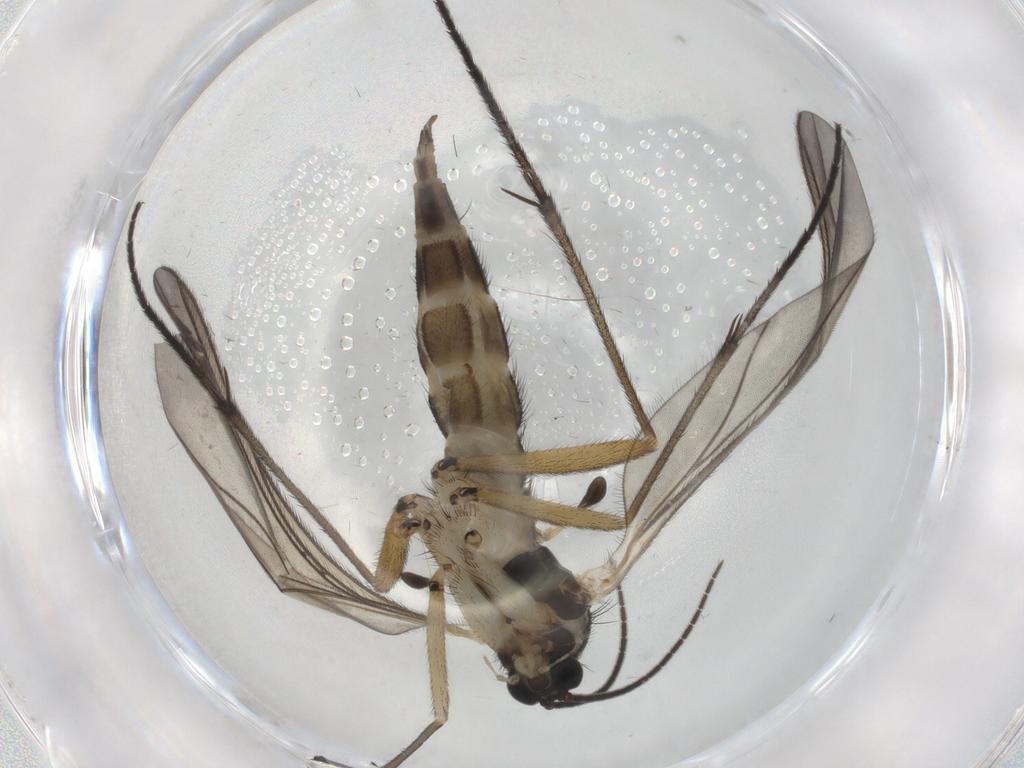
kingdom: Animalia
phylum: Arthropoda
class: Insecta
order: Diptera
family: Sciaridae
